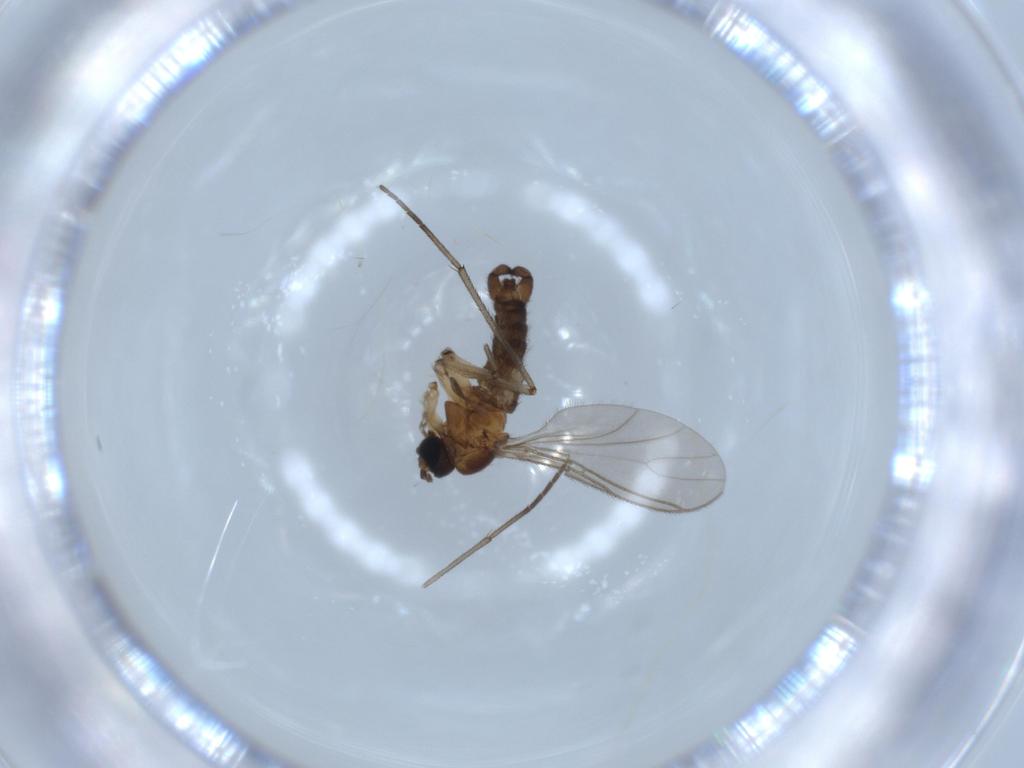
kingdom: Animalia
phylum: Arthropoda
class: Insecta
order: Diptera
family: Sciaridae
